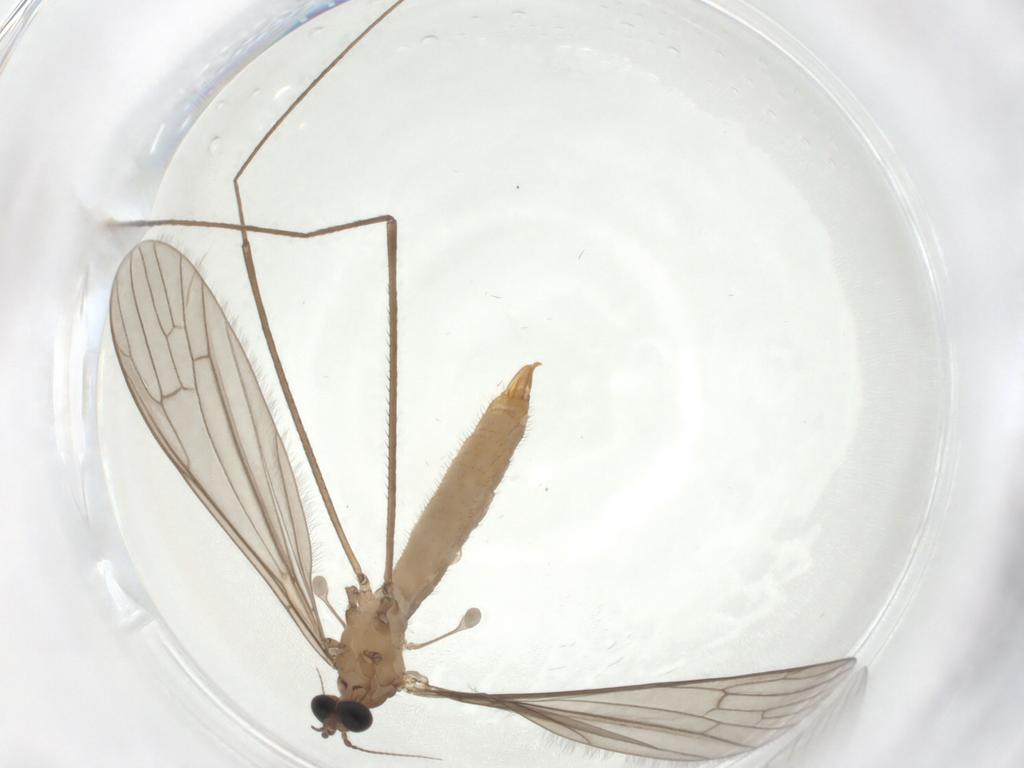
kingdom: Animalia
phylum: Arthropoda
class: Insecta
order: Diptera
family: Limoniidae
